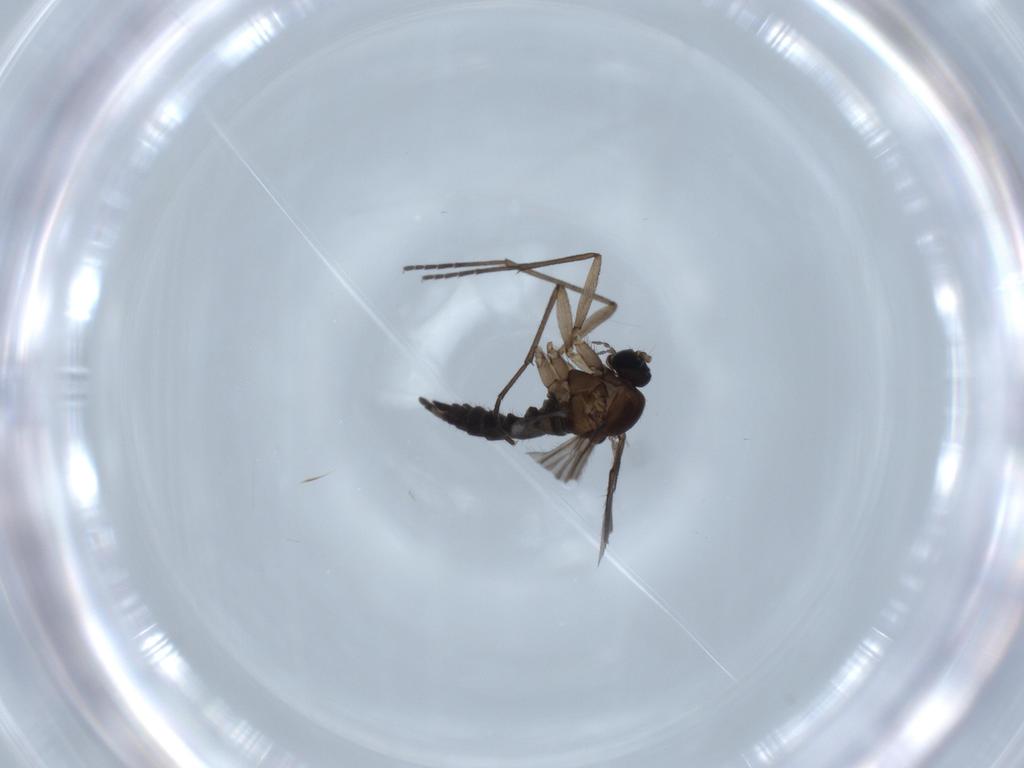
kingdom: Animalia
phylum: Arthropoda
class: Insecta
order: Diptera
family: Sciaridae
